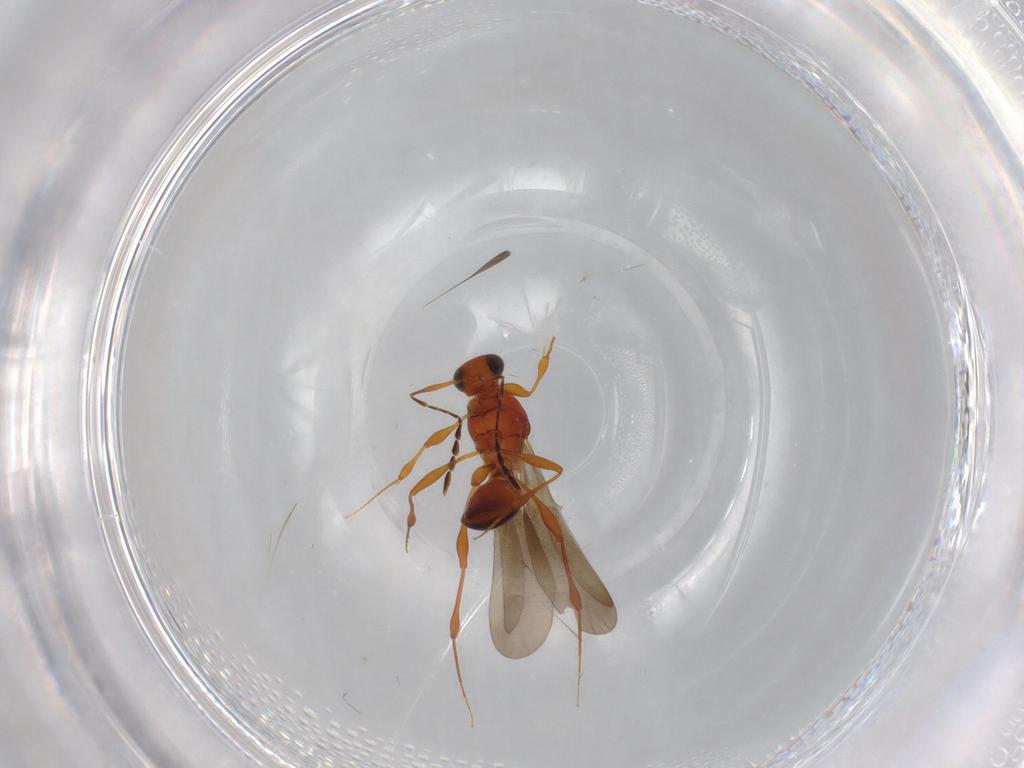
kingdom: Animalia
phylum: Arthropoda
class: Insecta
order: Hymenoptera
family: Platygastridae
